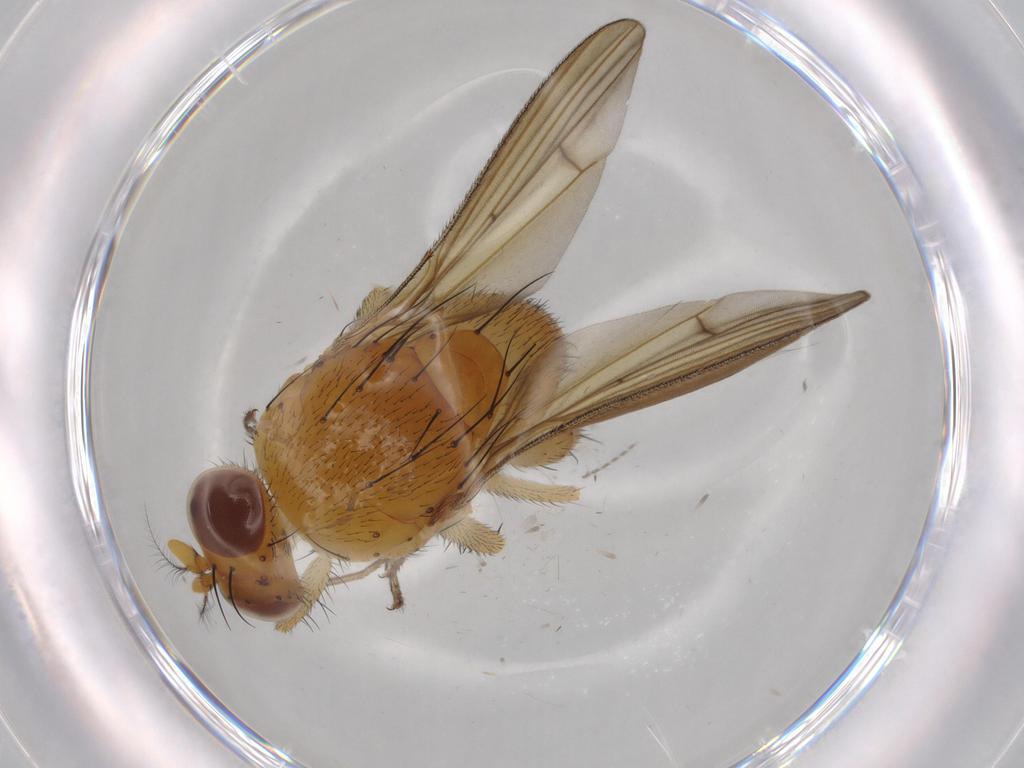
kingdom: Animalia
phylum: Arthropoda
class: Insecta
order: Diptera
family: Lauxaniidae
